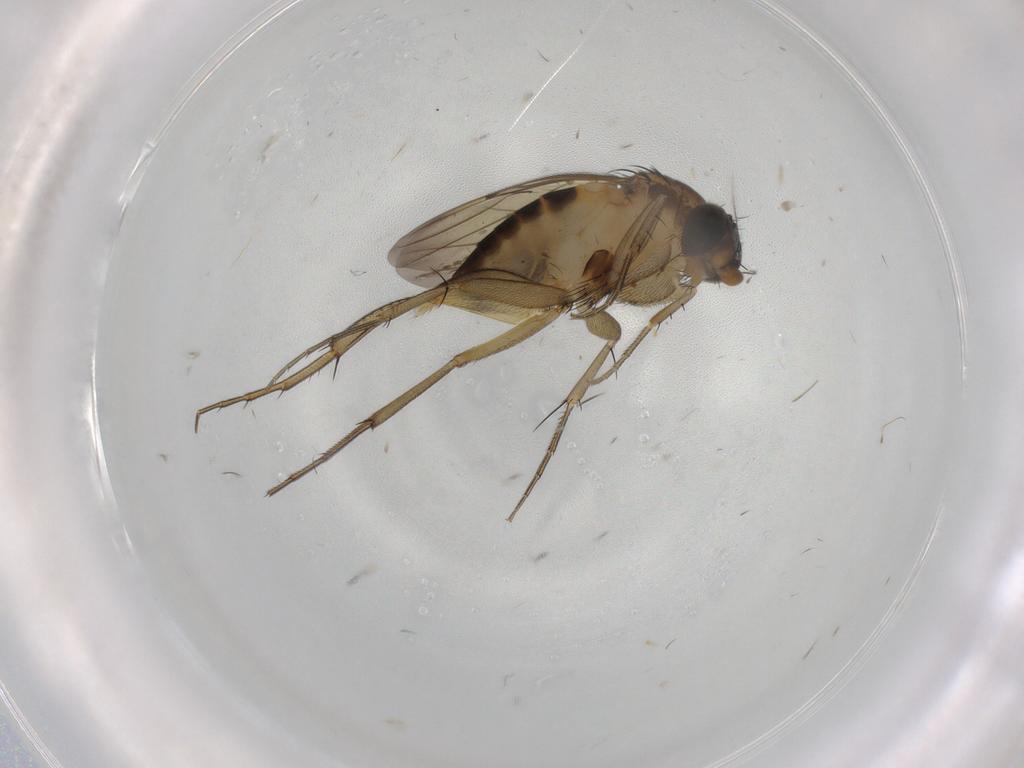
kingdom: Animalia
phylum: Arthropoda
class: Insecta
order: Diptera
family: Phoridae
